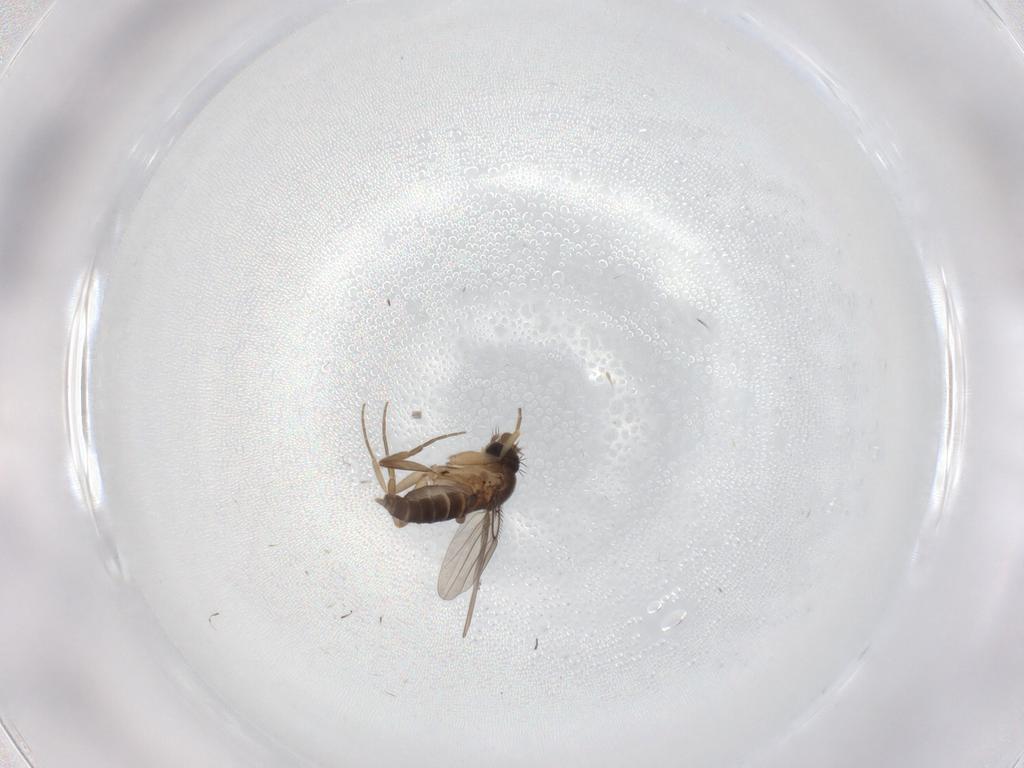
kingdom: Animalia
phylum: Arthropoda
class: Insecta
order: Diptera
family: Phoridae
